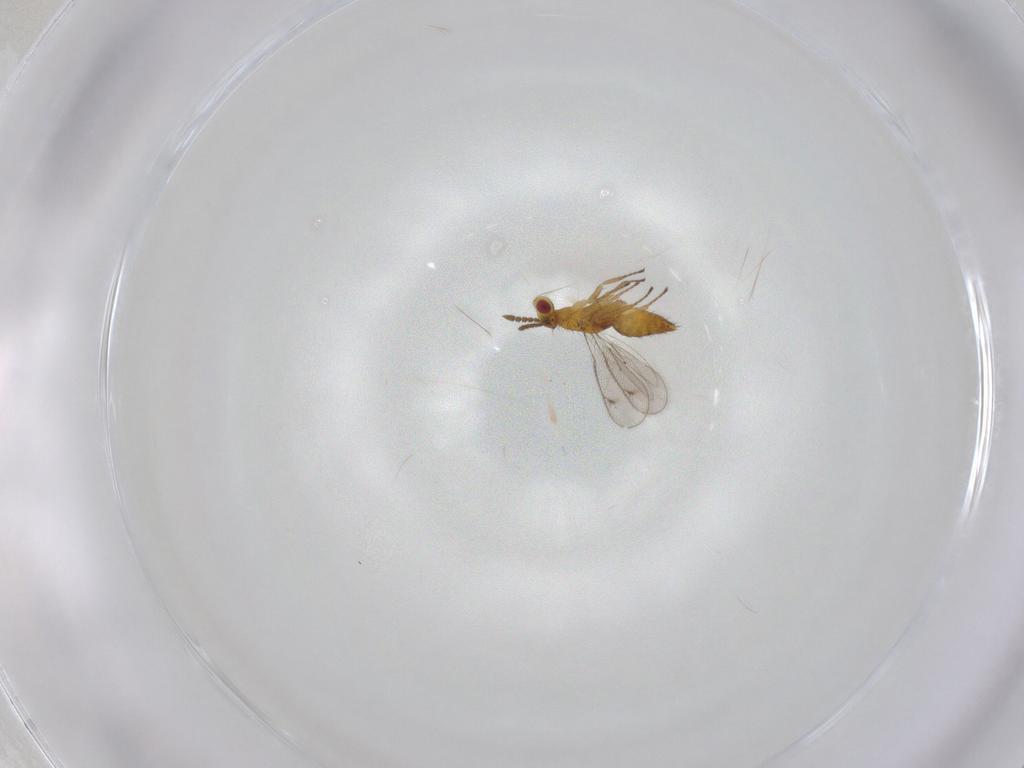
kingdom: Animalia
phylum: Arthropoda
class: Insecta
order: Hymenoptera
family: Eulophidae
